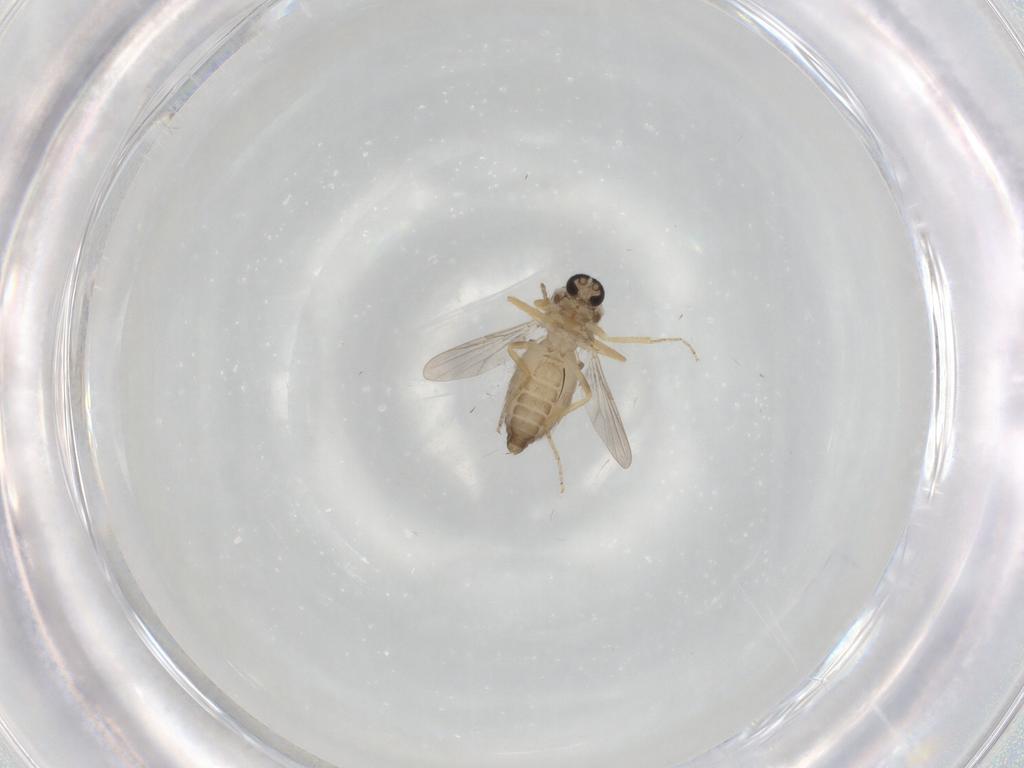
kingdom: Animalia
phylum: Arthropoda
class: Insecta
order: Diptera
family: Ceratopogonidae
